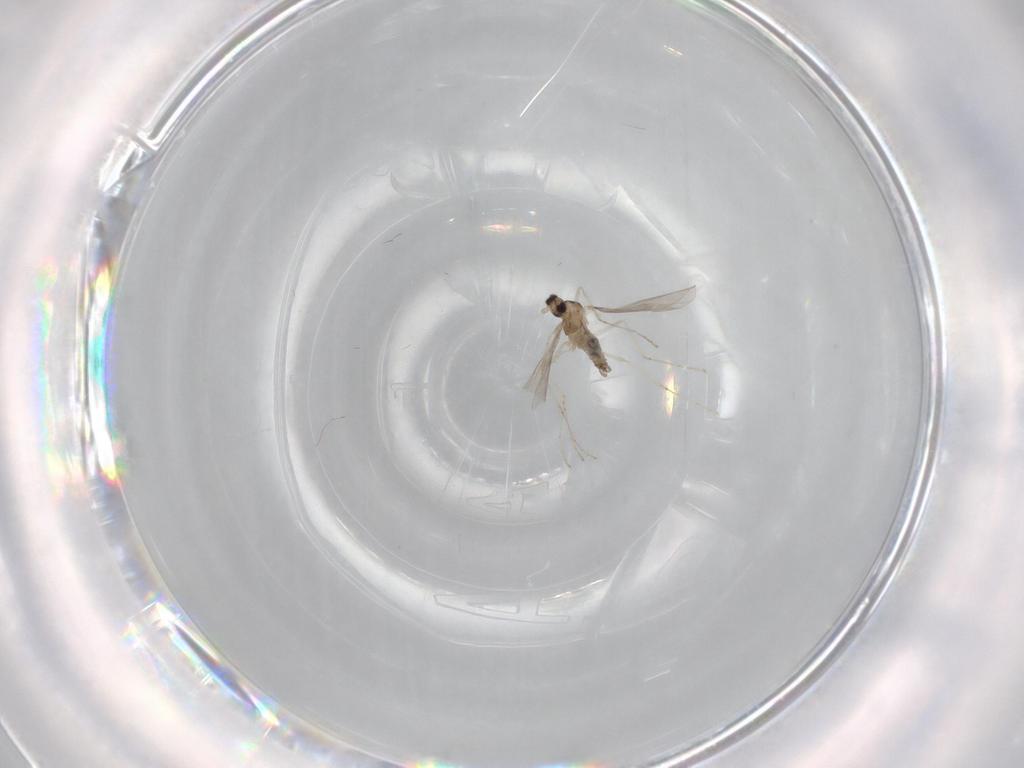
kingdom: Animalia
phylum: Arthropoda
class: Insecta
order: Diptera
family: Cecidomyiidae
